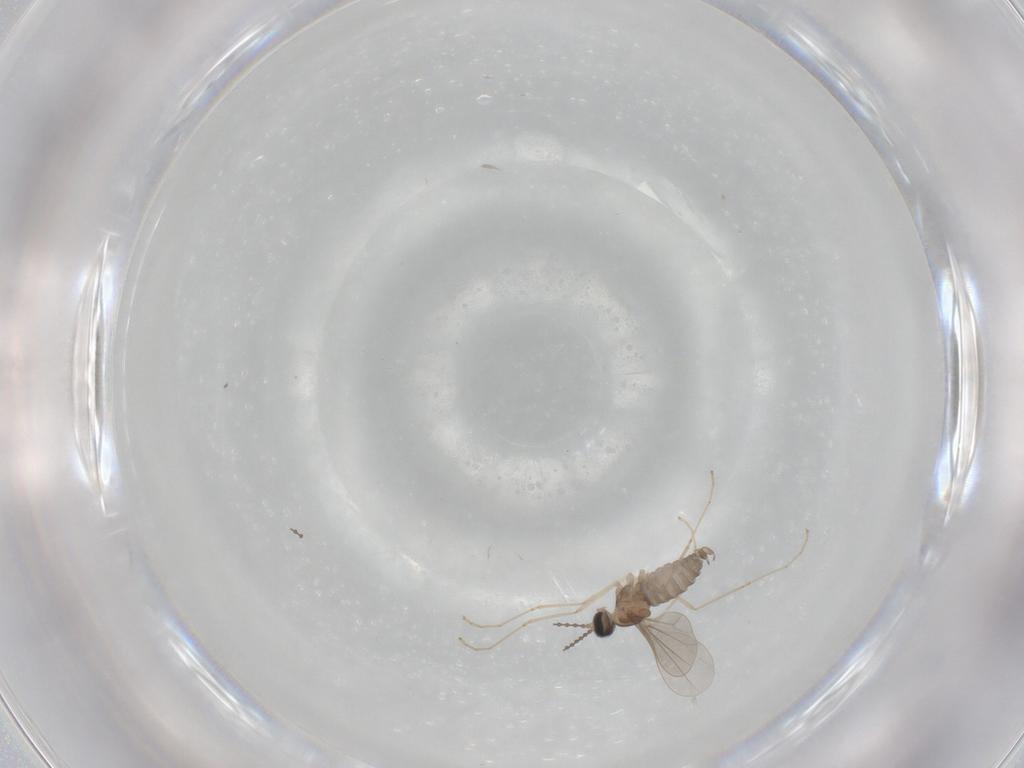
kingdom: Animalia
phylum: Arthropoda
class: Insecta
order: Diptera
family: Cecidomyiidae
